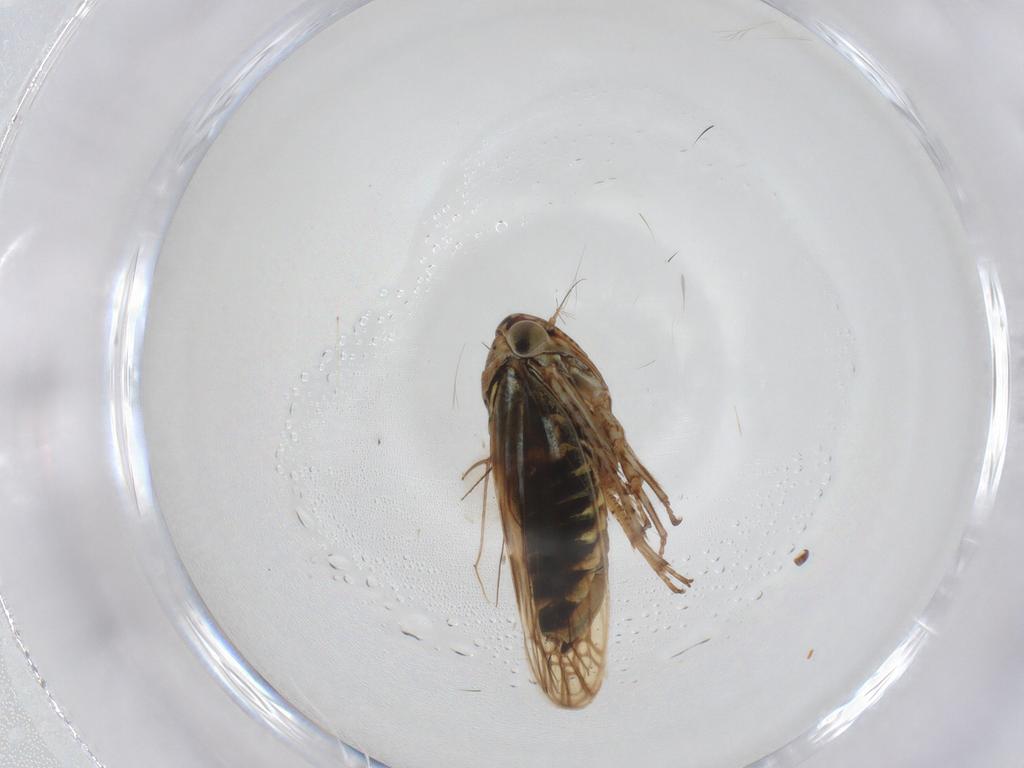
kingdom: Animalia
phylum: Arthropoda
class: Insecta
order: Hemiptera
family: Cicadellidae
